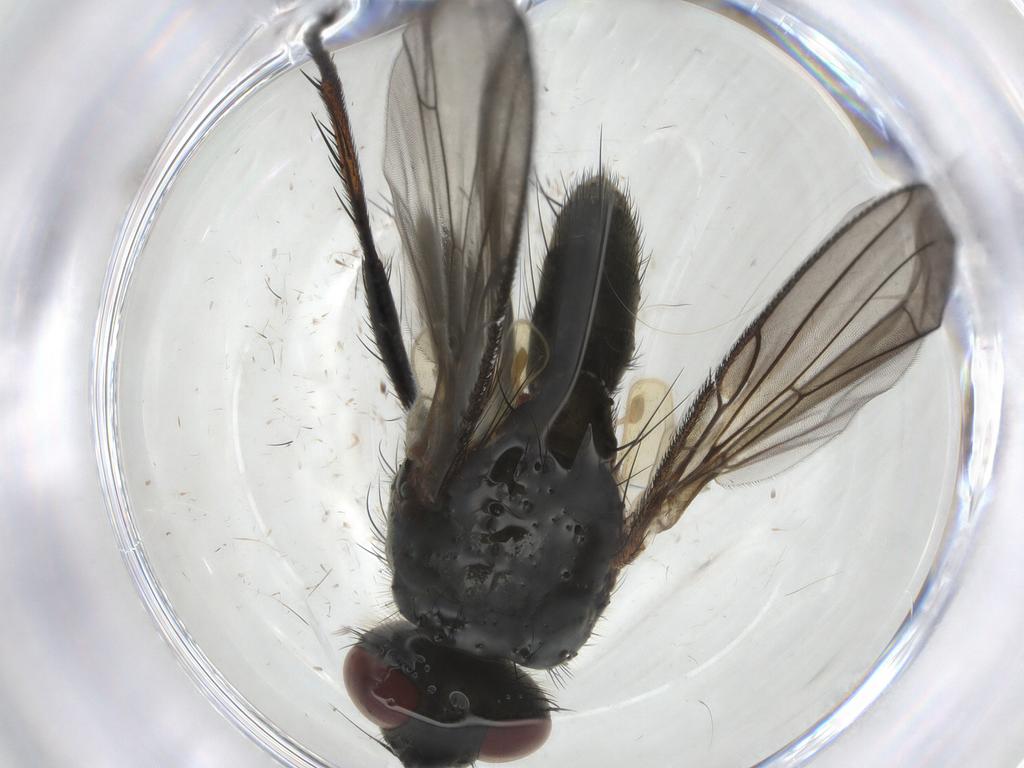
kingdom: Animalia
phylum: Arthropoda
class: Insecta
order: Diptera
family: Tachinidae
